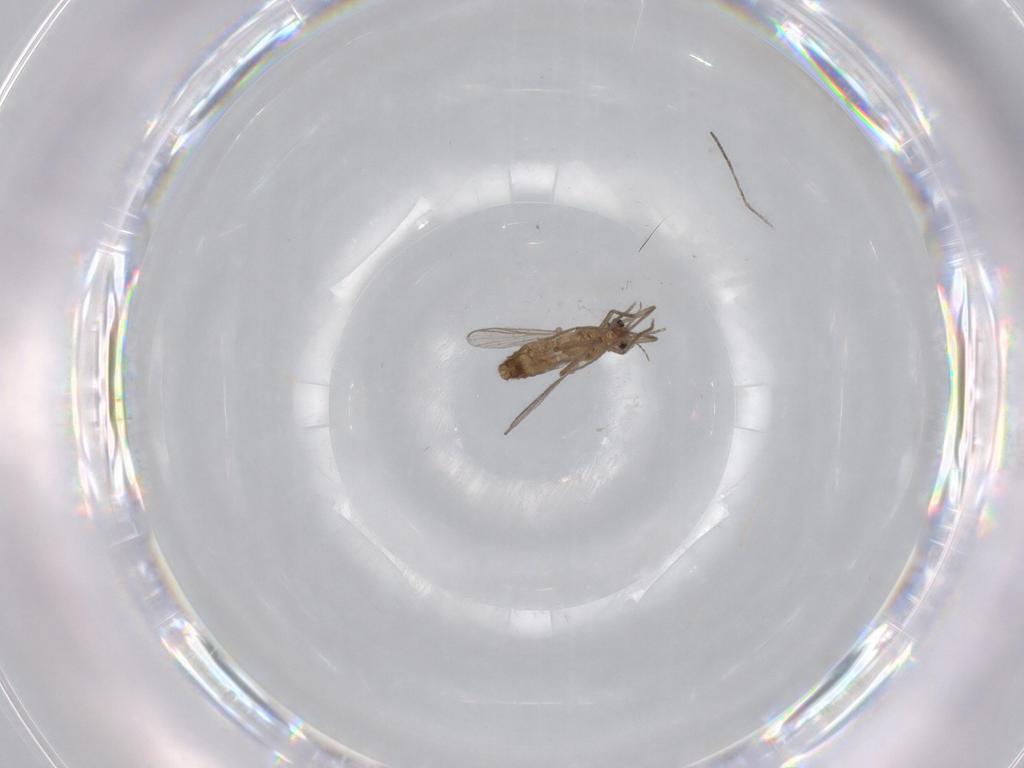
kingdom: Animalia
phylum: Arthropoda
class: Insecta
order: Diptera
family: Chironomidae
